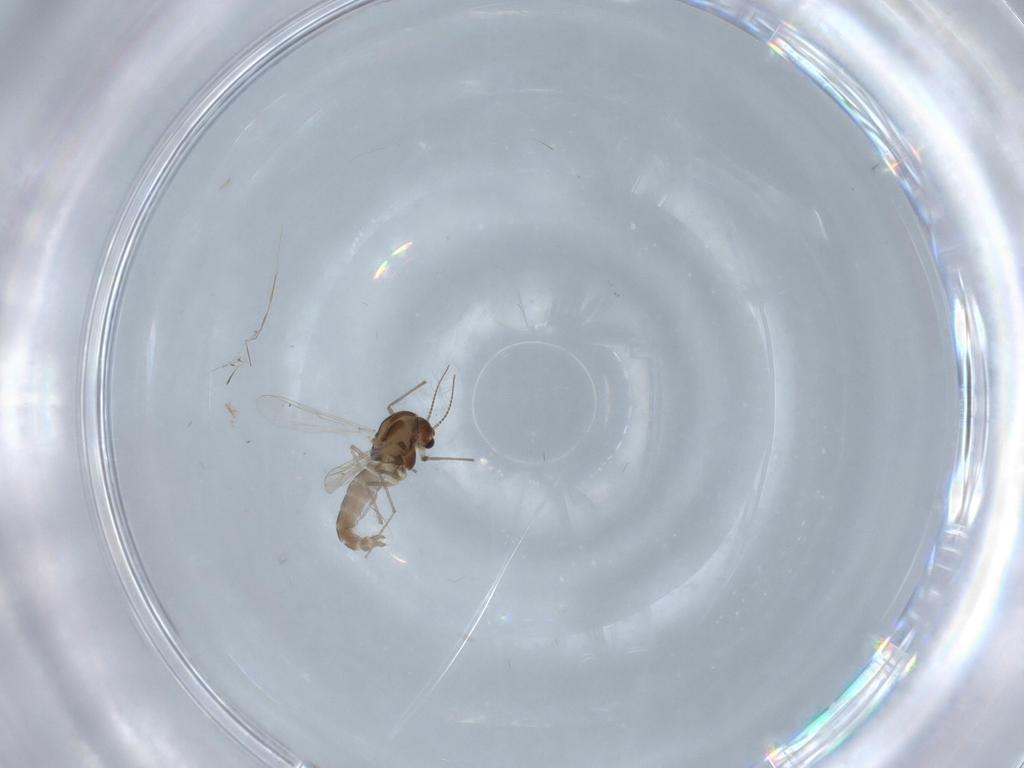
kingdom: Animalia
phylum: Arthropoda
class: Insecta
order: Diptera
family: Chironomidae
